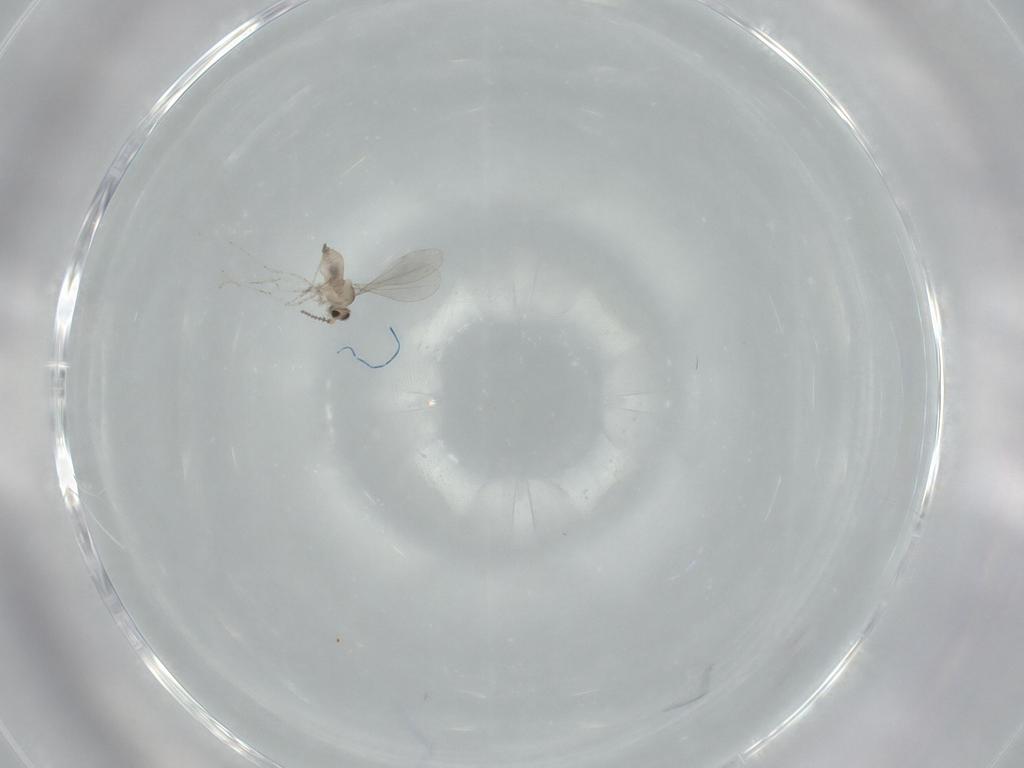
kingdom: Animalia
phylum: Arthropoda
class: Insecta
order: Diptera
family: Cecidomyiidae
